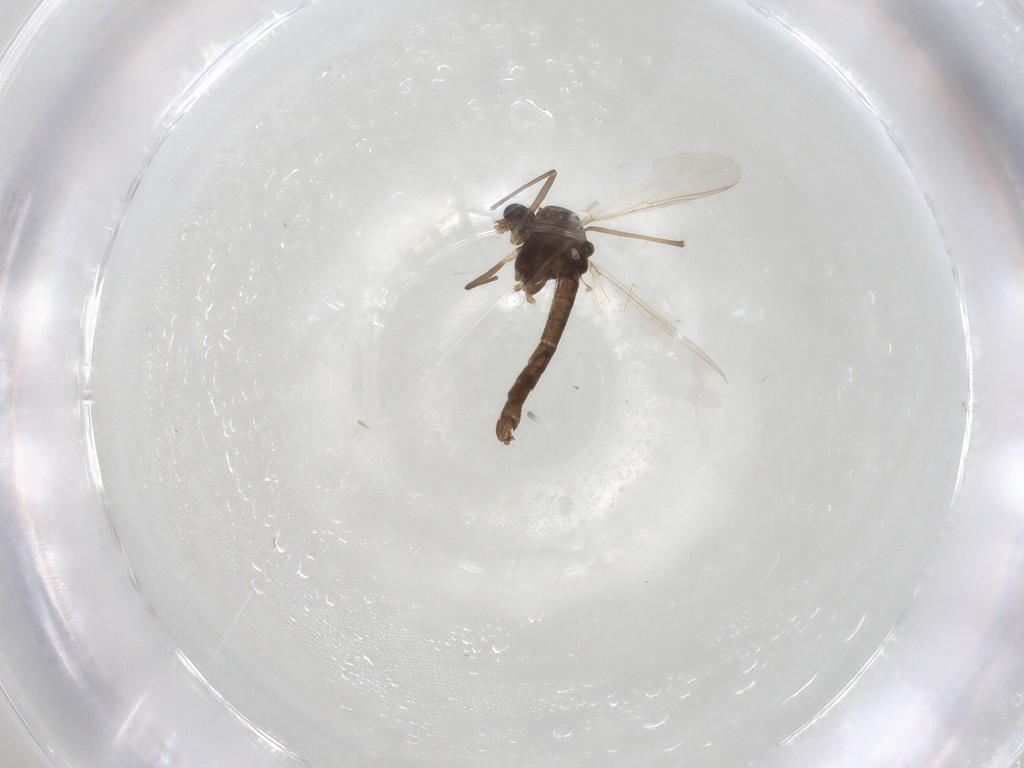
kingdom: Animalia
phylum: Arthropoda
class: Insecta
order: Diptera
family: Chironomidae
